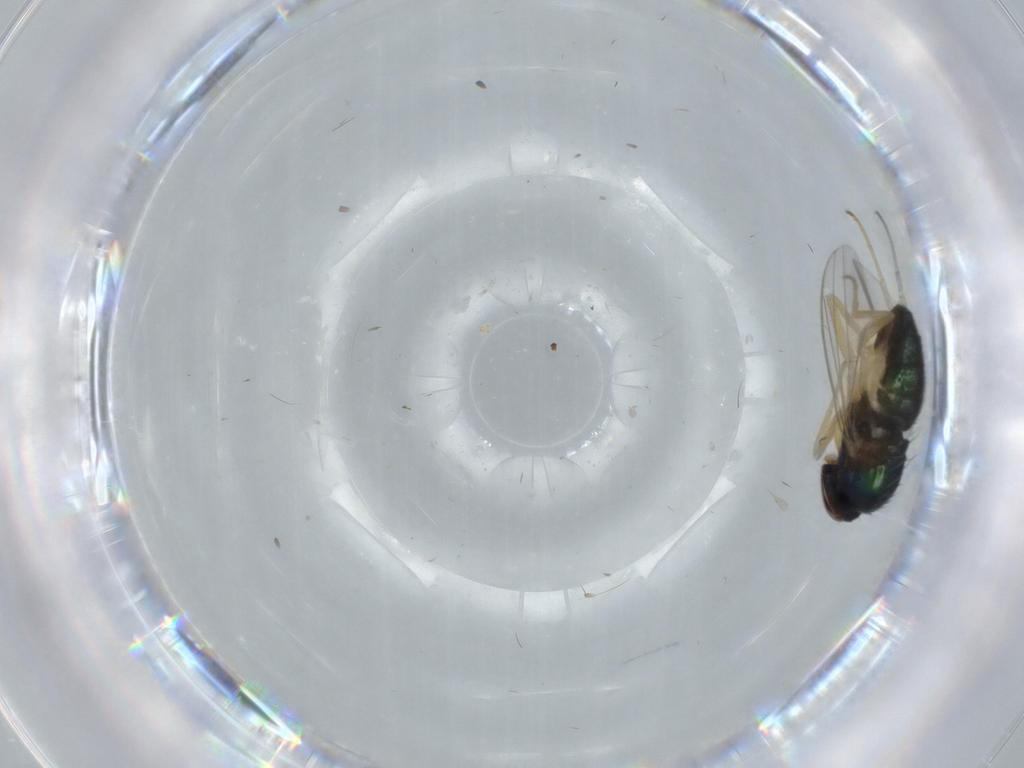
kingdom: Animalia
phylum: Arthropoda
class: Insecta
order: Diptera
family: Dolichopodidae
